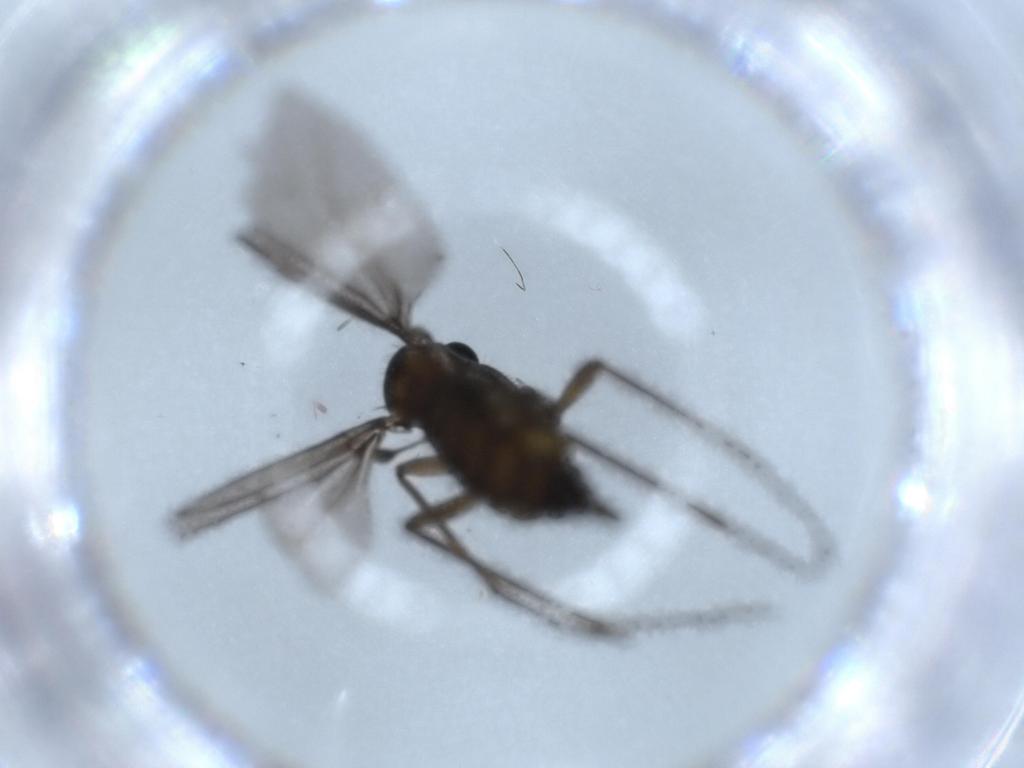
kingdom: Animalia
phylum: Arthropoda
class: Insecta
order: Diptera
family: Sciaridae
